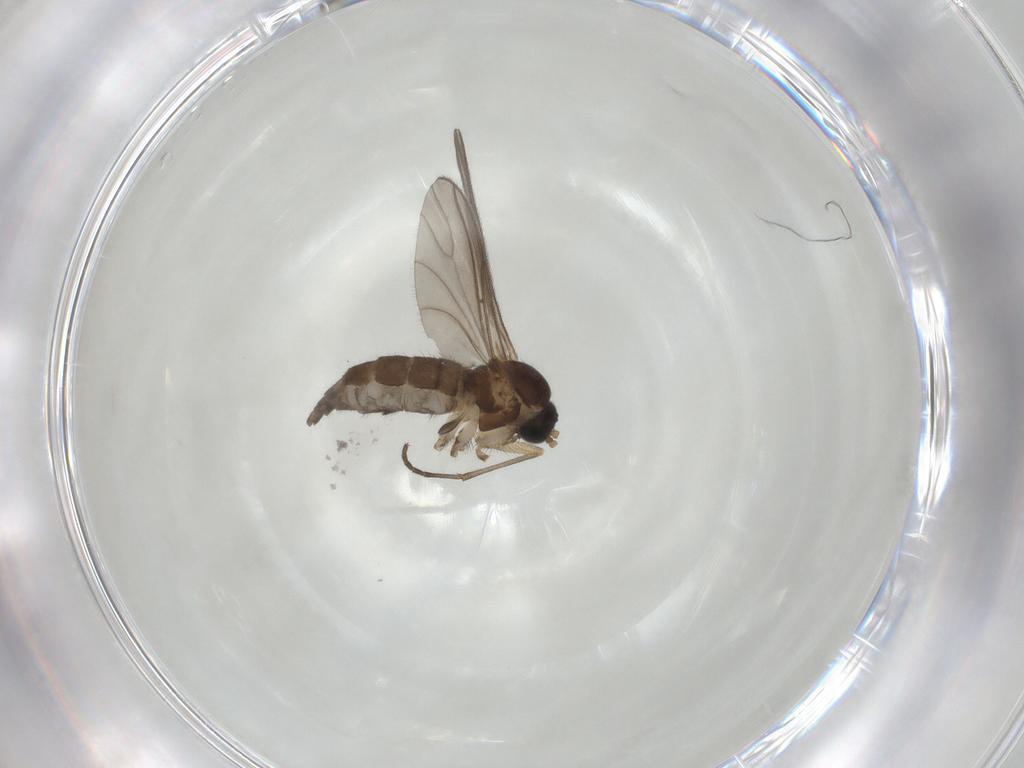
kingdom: Animalia
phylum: Arthropoda
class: Insecta
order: Diptera
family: Sciaridae
